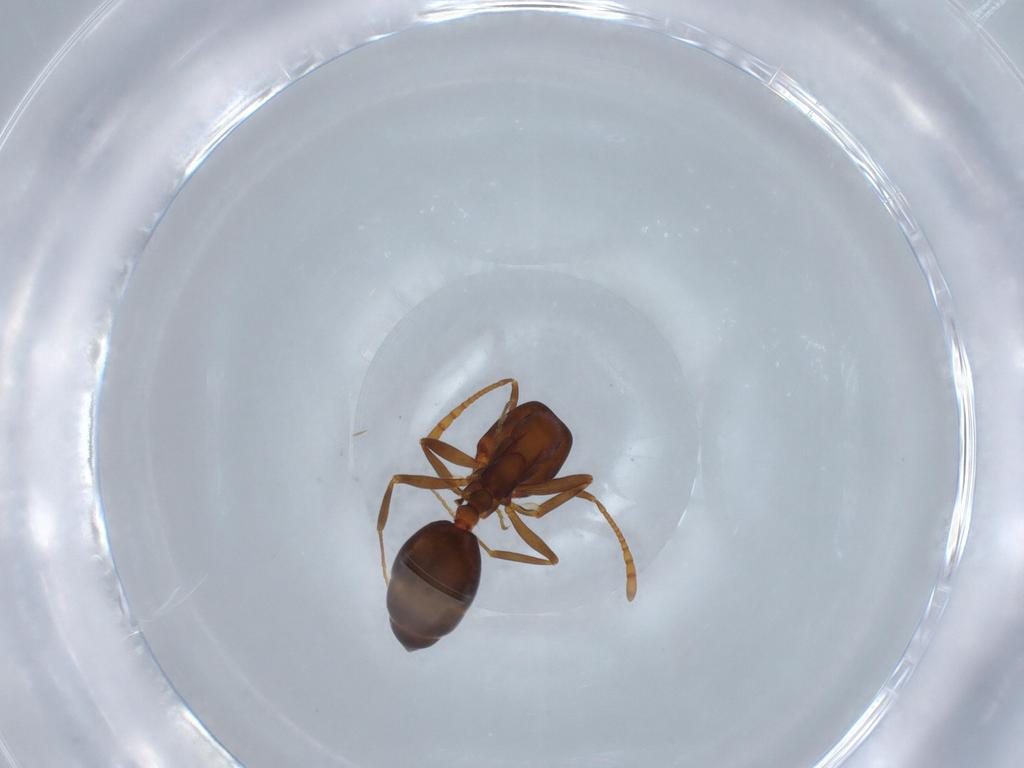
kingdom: Animalia
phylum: Arthropoda
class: Insecta
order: Hymenoptera
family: Formicidae
